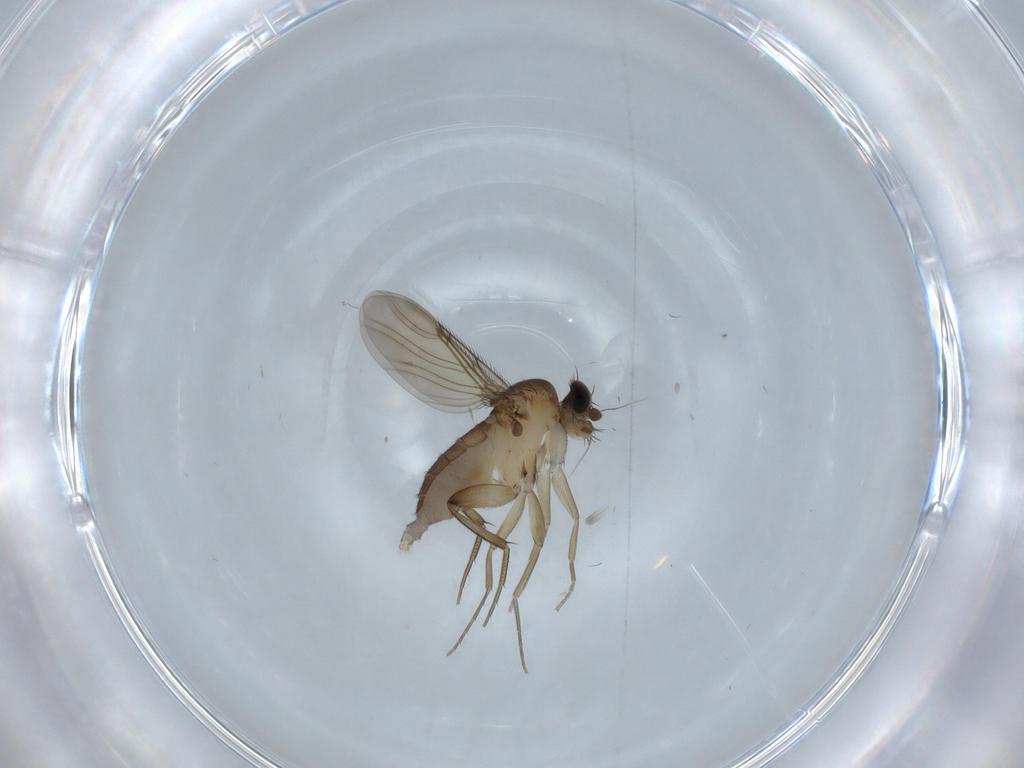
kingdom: Animalia
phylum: Arthropoda
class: Insecta
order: Diptera
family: Phoridae
